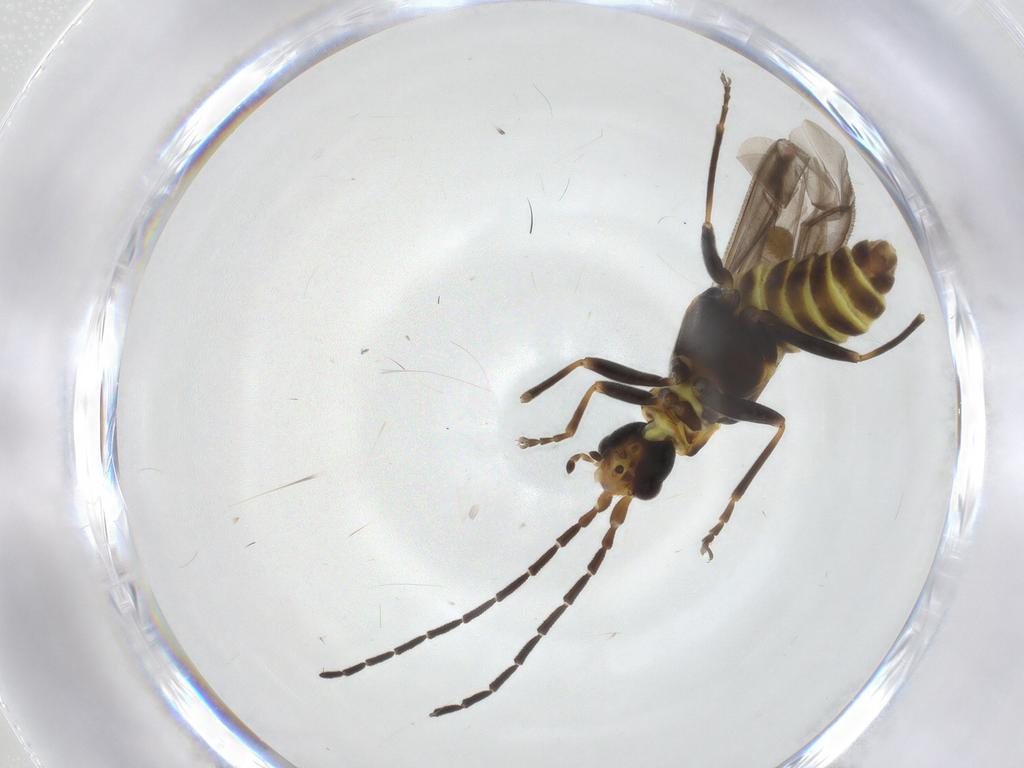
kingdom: Animalia
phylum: Arthropoda
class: Insecta
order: Coleoptera
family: Cantharidae
